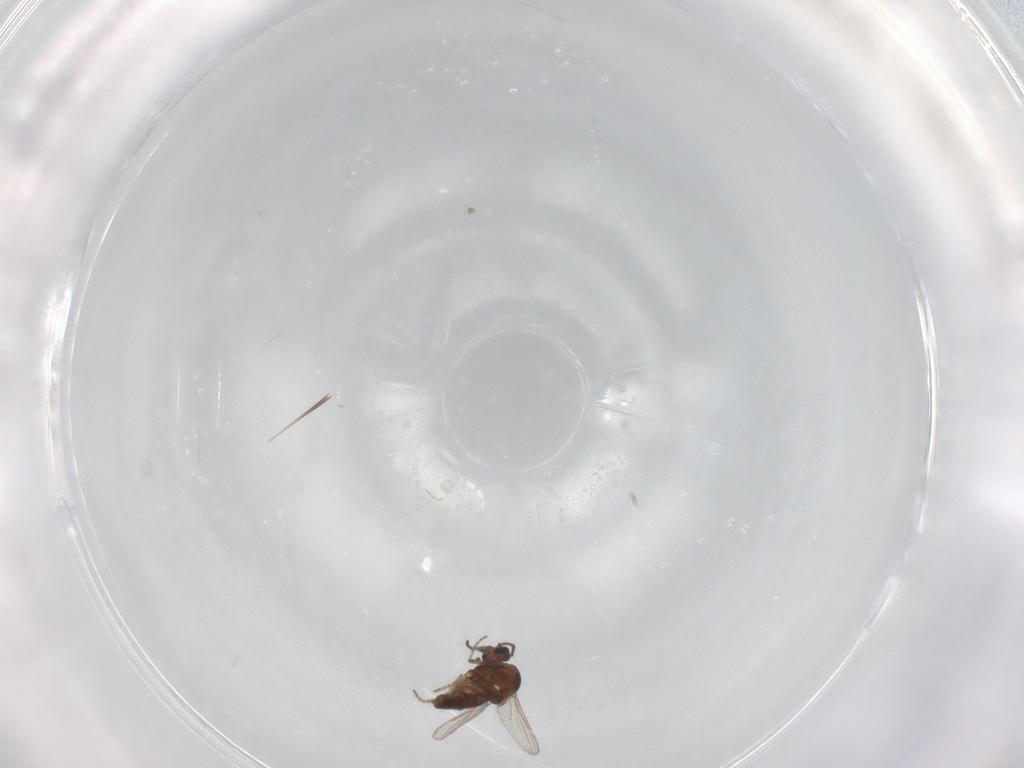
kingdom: Animalia
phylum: Arthropoda
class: Insecta
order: Diptera
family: Ceratopogonidae
